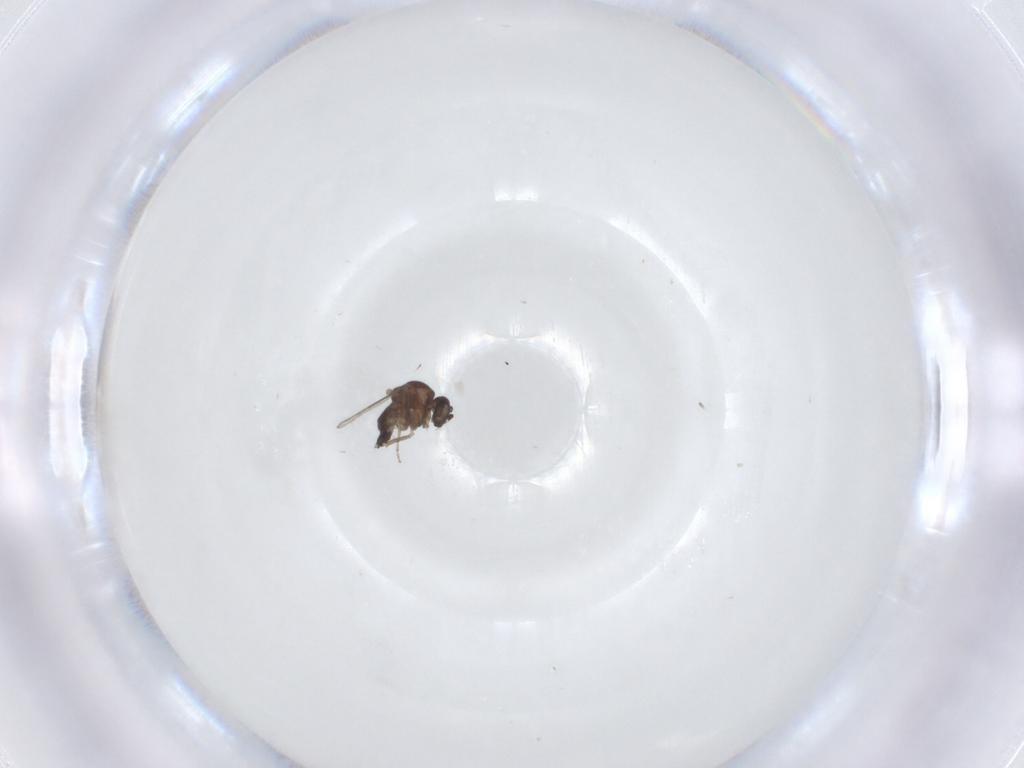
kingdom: Animalia
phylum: Arthropoda
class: Insecta
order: Diptera
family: Ceratopogonidae
